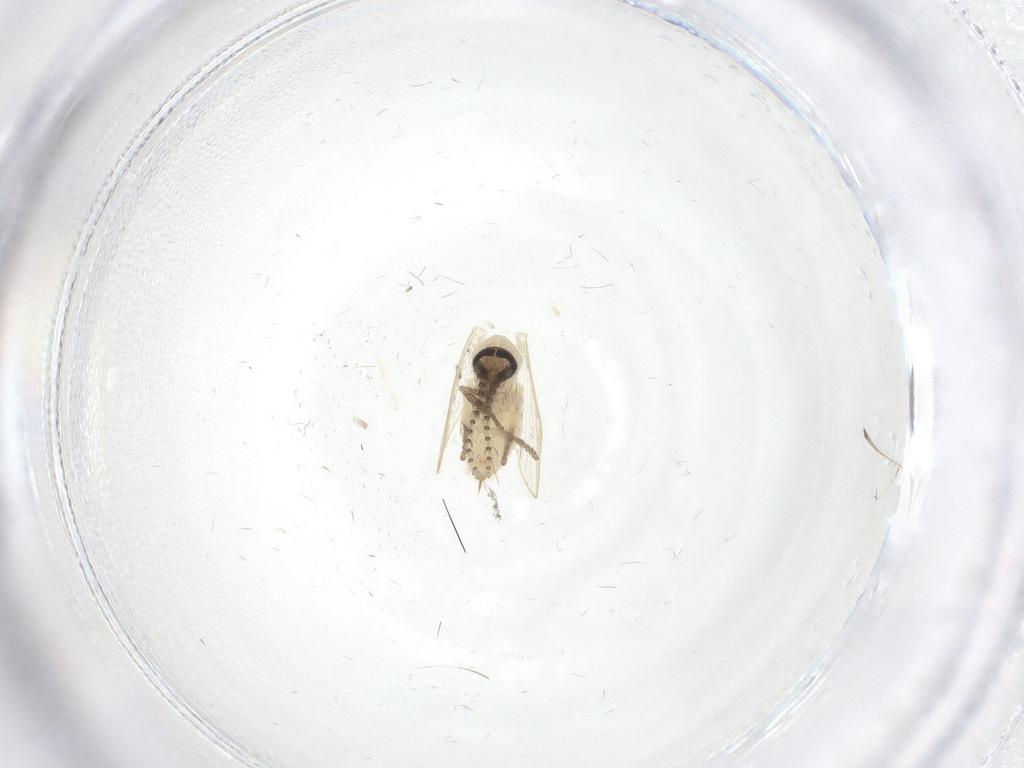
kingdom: Animalia
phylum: Arthropoda
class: Insecta
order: Diptera
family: Psychodidae
